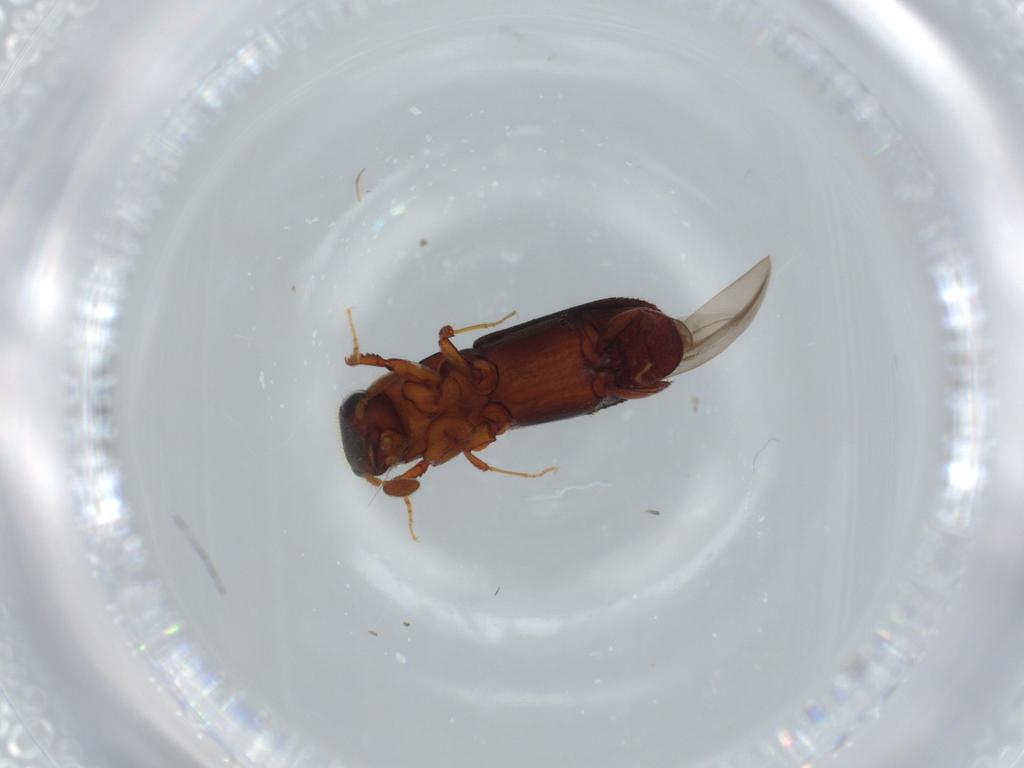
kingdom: Animalia
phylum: Arthropoda
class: Insecta
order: Coleoptera
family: Curculionidae
